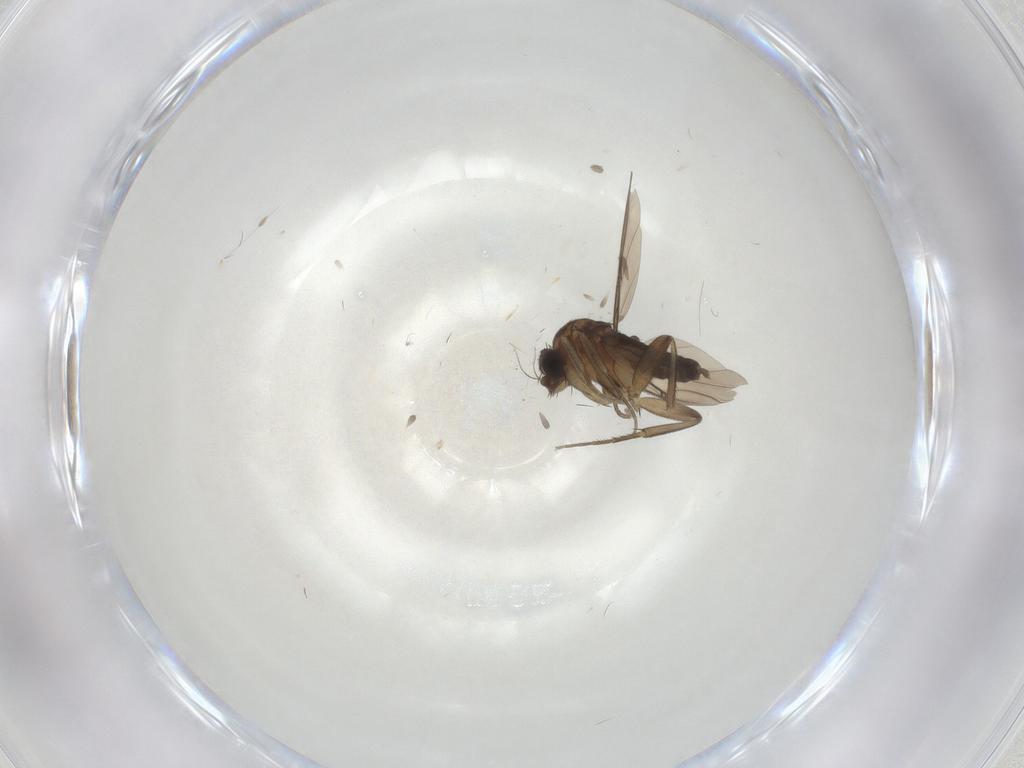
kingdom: Animalia
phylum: Arthropoda
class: Insecta
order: Diptera
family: Phoridae
